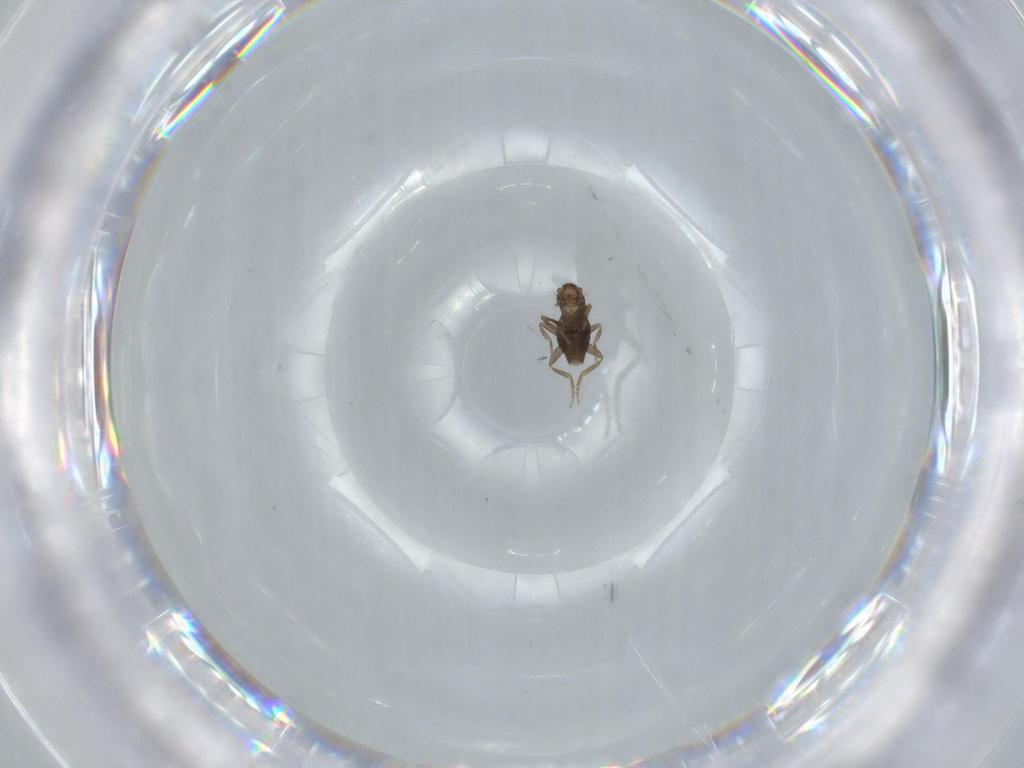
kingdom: Animalia
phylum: Arthropoda
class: Insecta
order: Diptera
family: Phoridae
